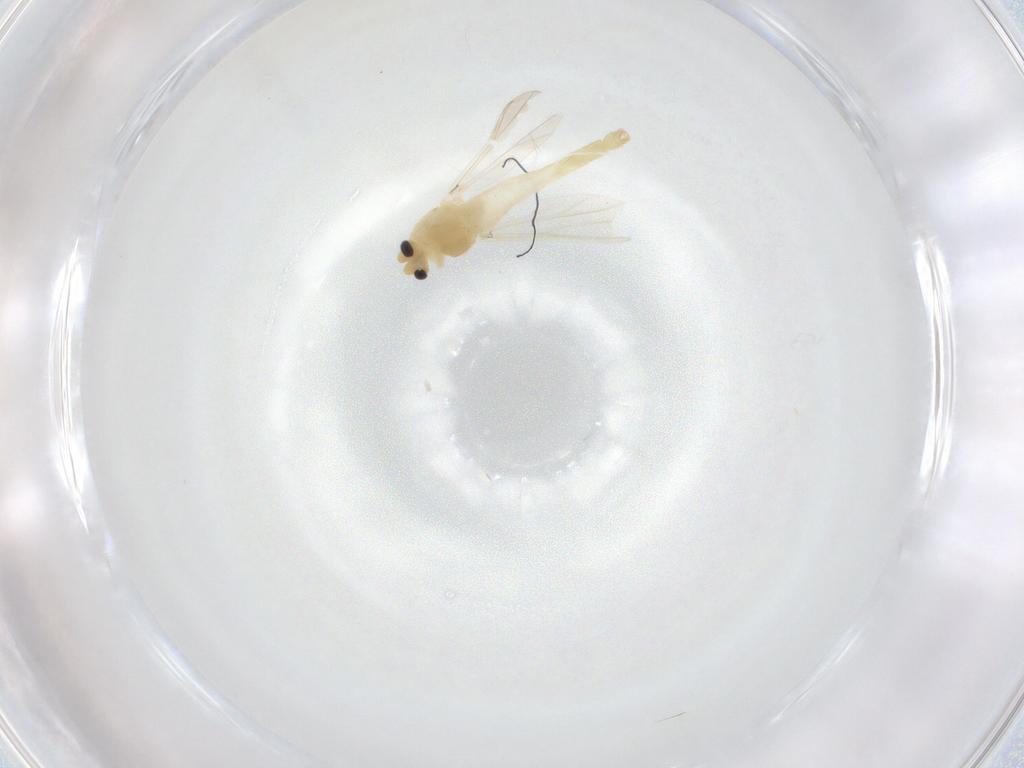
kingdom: Animalia
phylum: Arthropoda
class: Insecta
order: Diptera
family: Chironomidae
